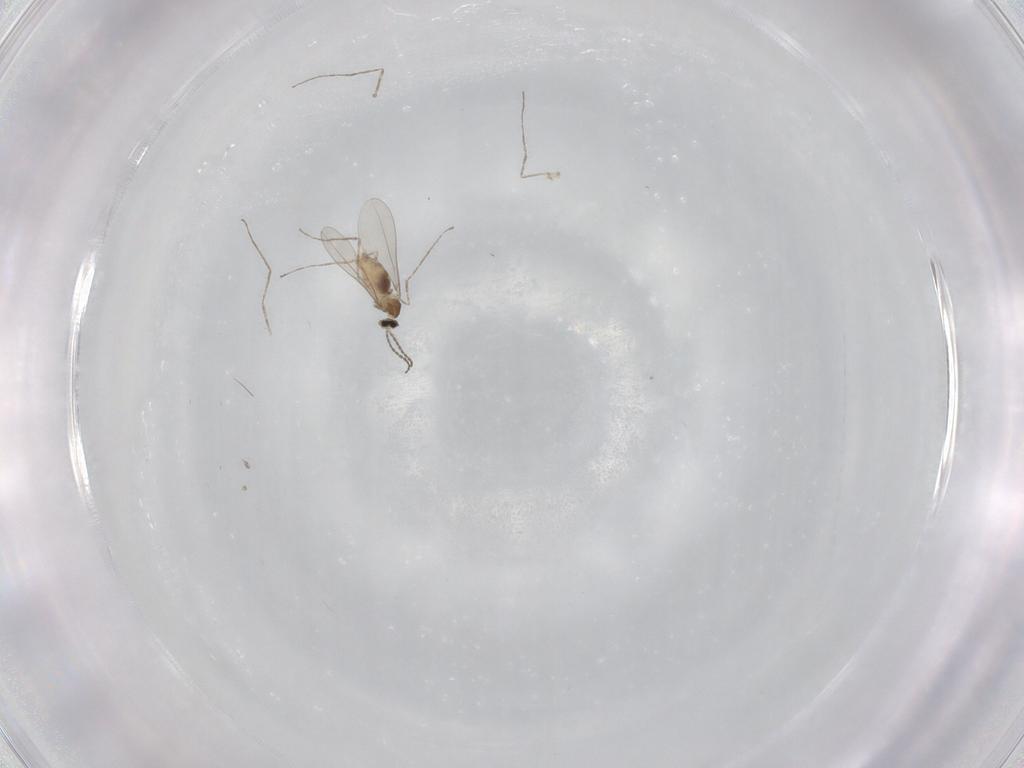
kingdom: Animalia
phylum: Arthropoda
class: Insecta
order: Diptera
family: Cecidomyiidae
